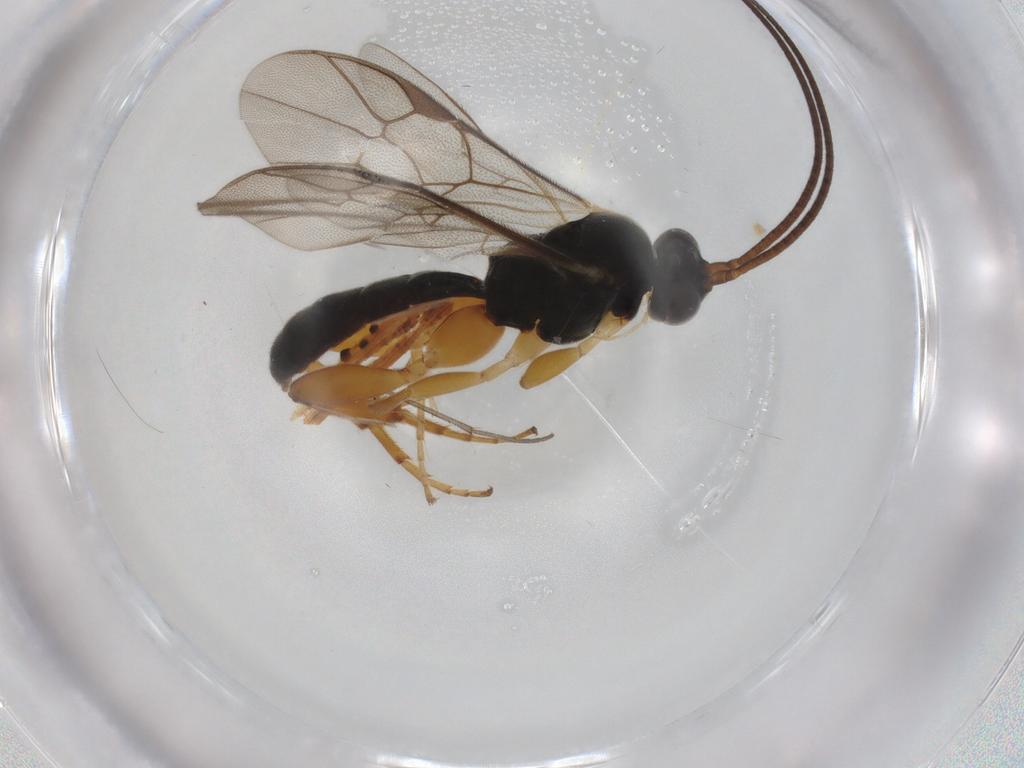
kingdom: Animalia
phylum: Arthropoda
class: Insecta
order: Hymenoptera
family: Ichneumonidae
